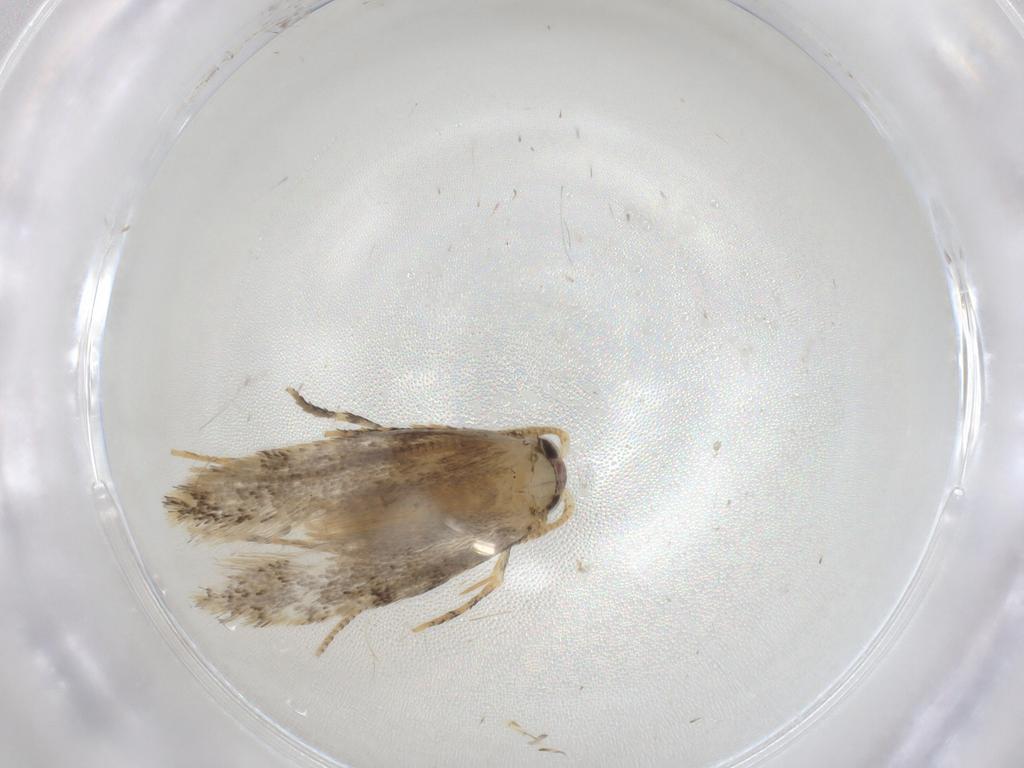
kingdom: Animalia
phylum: Arthropoda
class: Insecta
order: Lepidoptera
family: Tineidae
